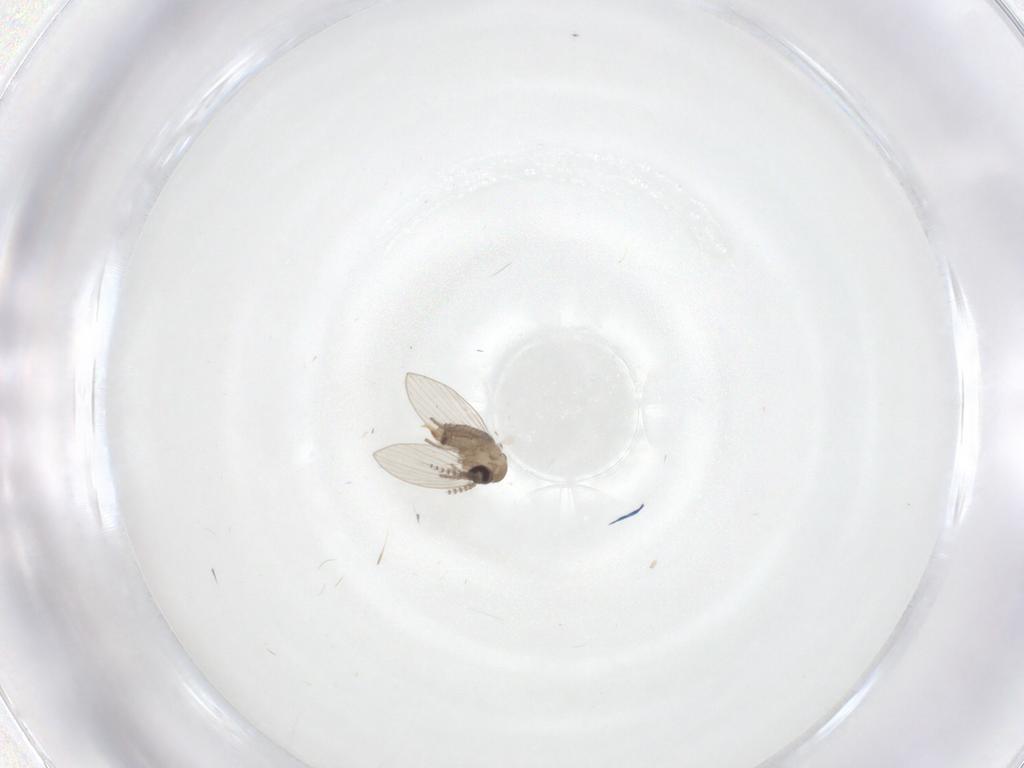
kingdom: Animalia
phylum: Arthropoda
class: Insecta
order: Diptera
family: Psychodidae
